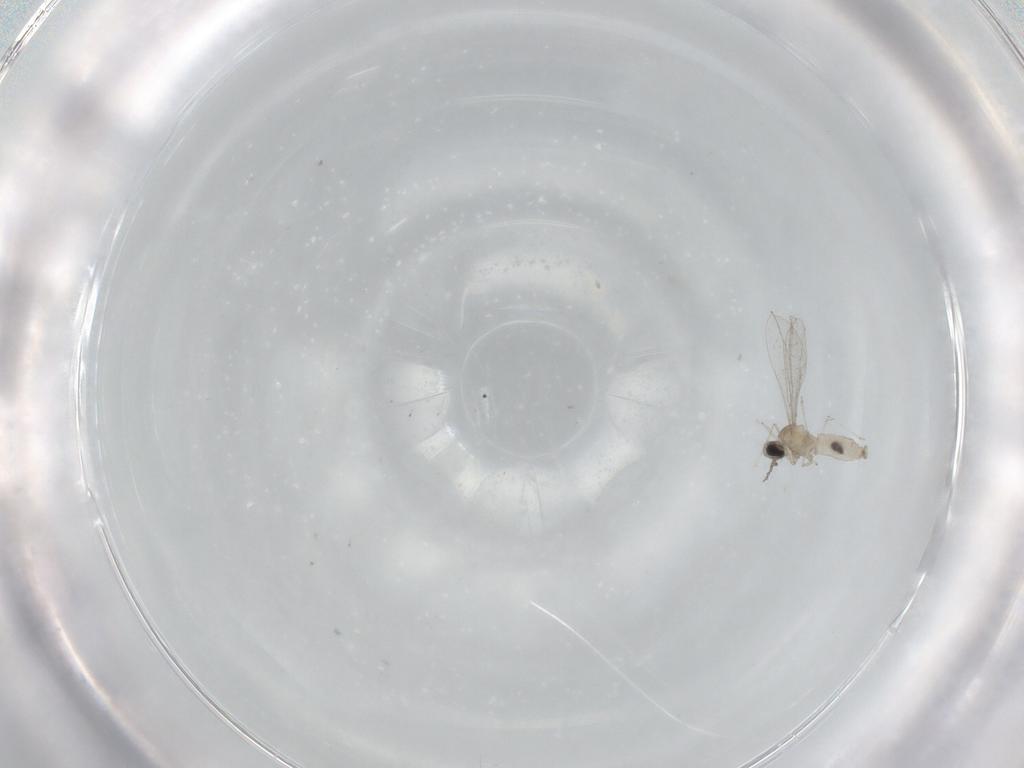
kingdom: Animalia
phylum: Arthropoda
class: Insecta
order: Diptera
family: Cecidomyiidae
